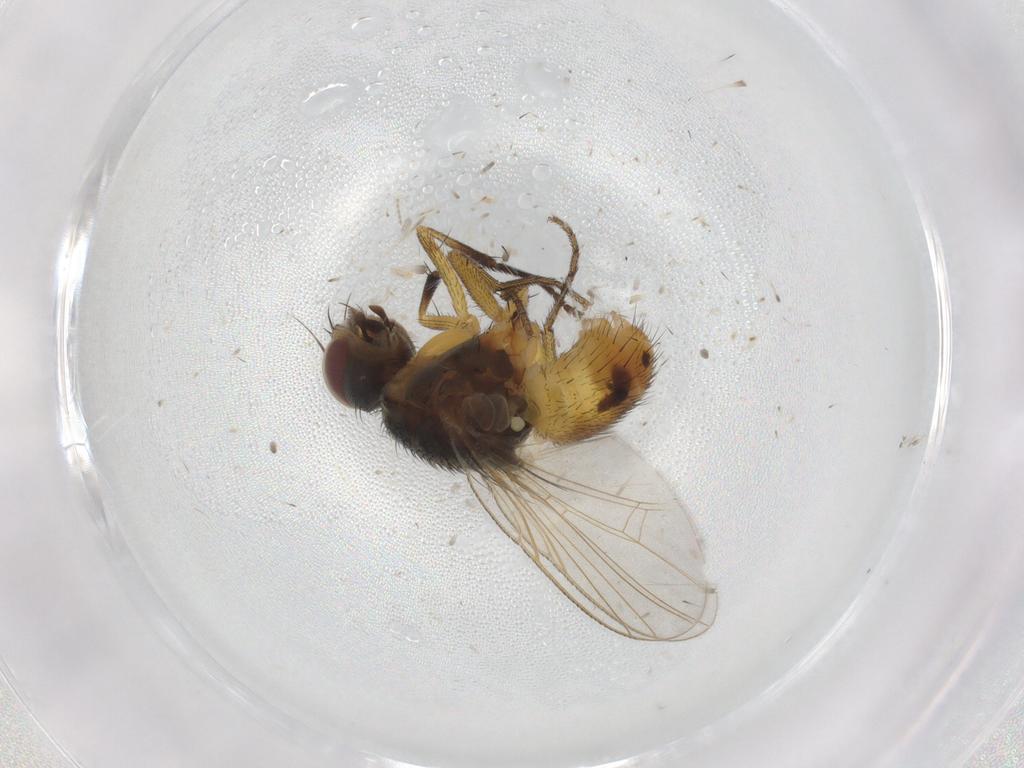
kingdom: Animalia
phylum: Arthropoda
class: Insecta
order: Diptera
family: Muscidae
